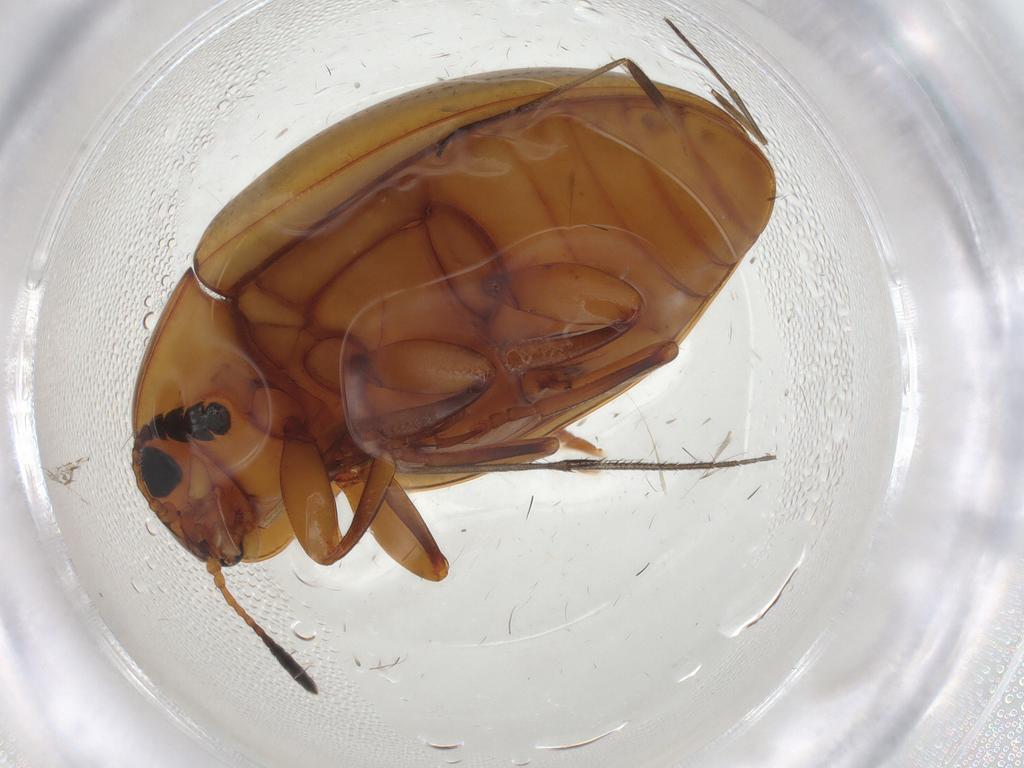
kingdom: Animalia
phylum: Arthropoda
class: Insecta
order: Coleoptera
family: Erotylidae
